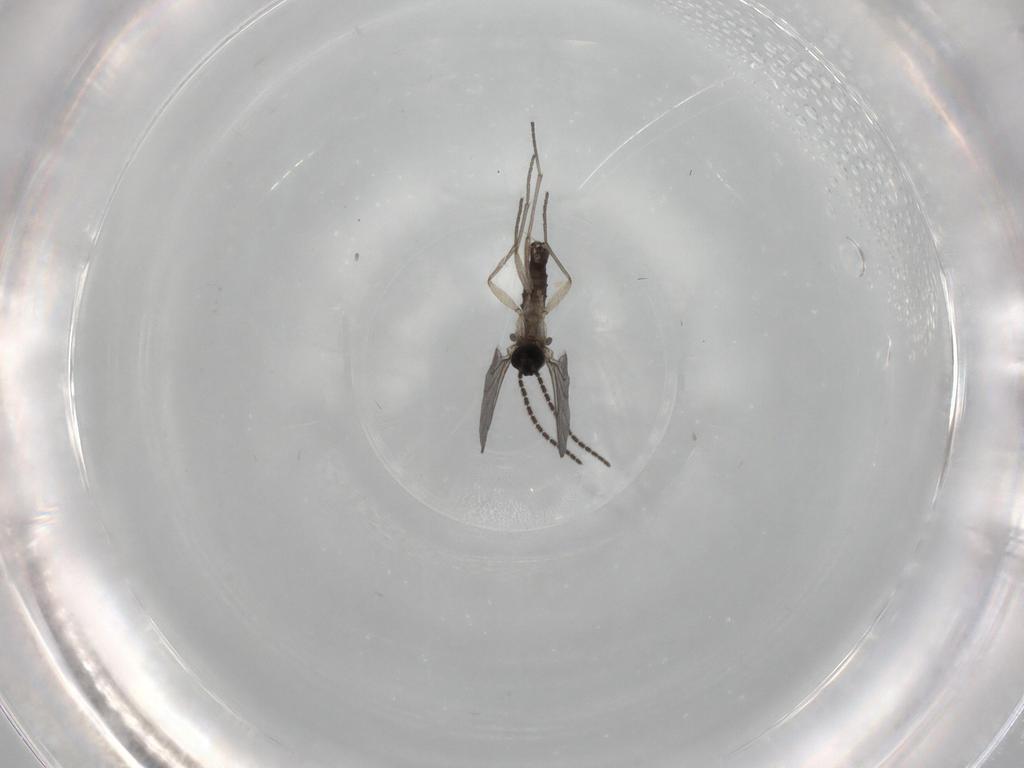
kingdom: Animalia
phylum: Arthropoda
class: Insecta
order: Diptera
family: Sciaridae
